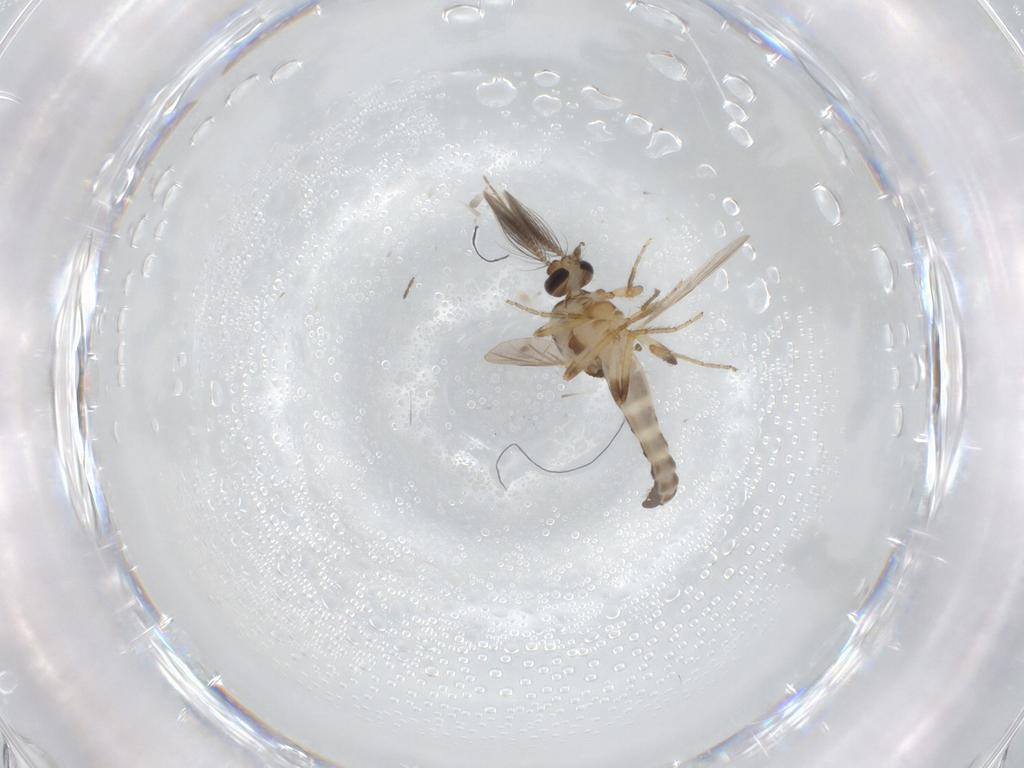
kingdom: Animalia
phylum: Arthropoda
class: Insecta
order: Diptera
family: Ceratopogonidae
